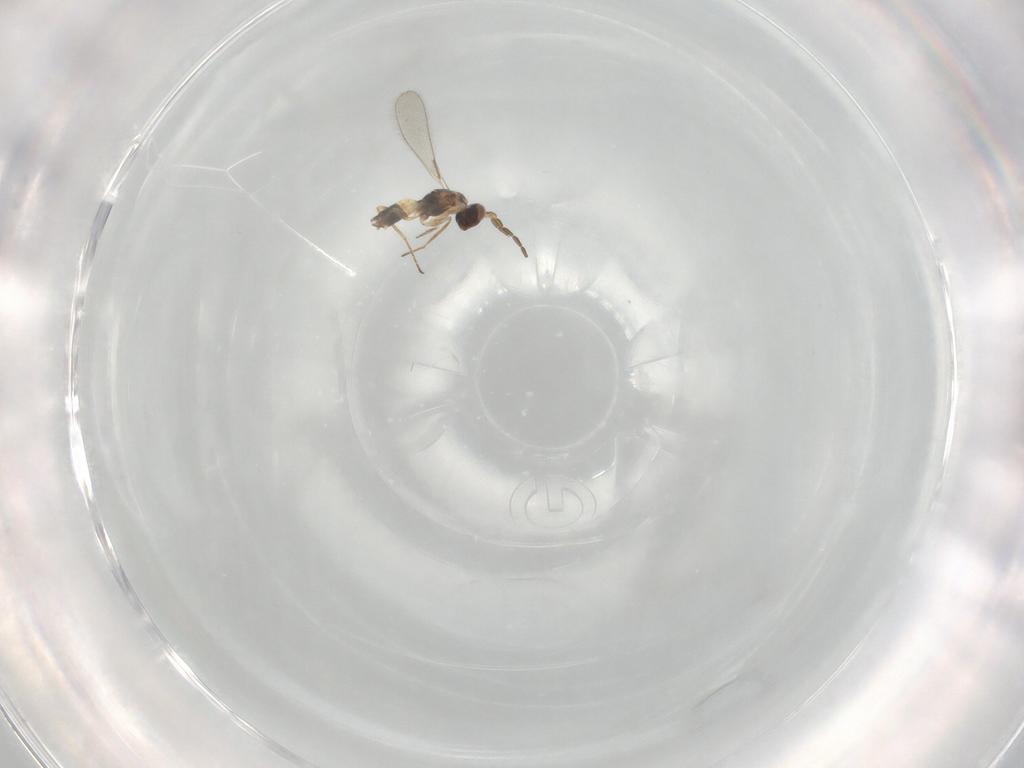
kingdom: Animalia
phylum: Arthropoda
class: Insecta
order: Hymenoptera
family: Mymaridae
